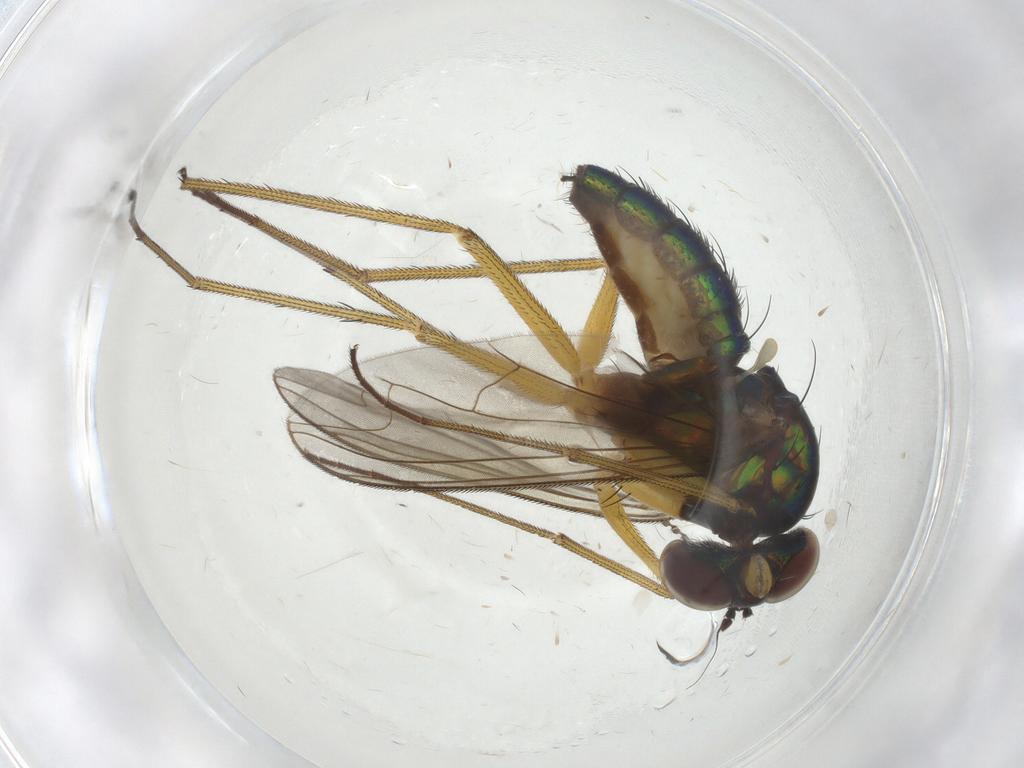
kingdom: Animalia
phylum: Arthropoda
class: Insecta
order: Diptera
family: Dolichopodidae
